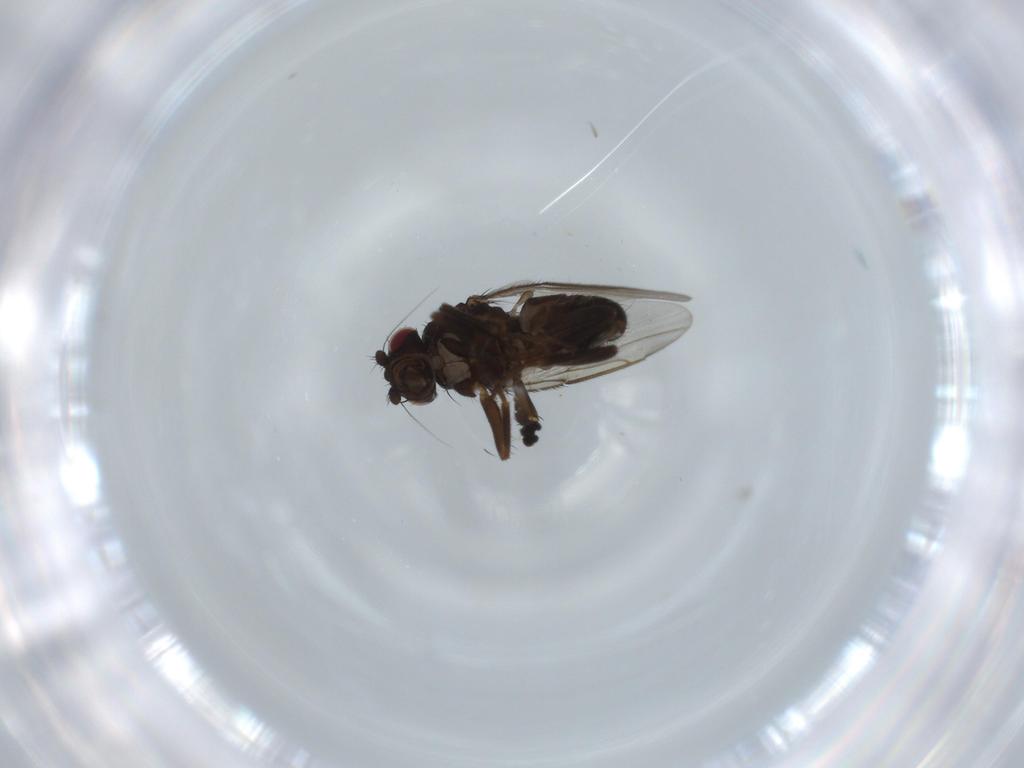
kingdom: Animalia
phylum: Arthropoda
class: Insecta
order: Diptera
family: Sphaeroceridae
